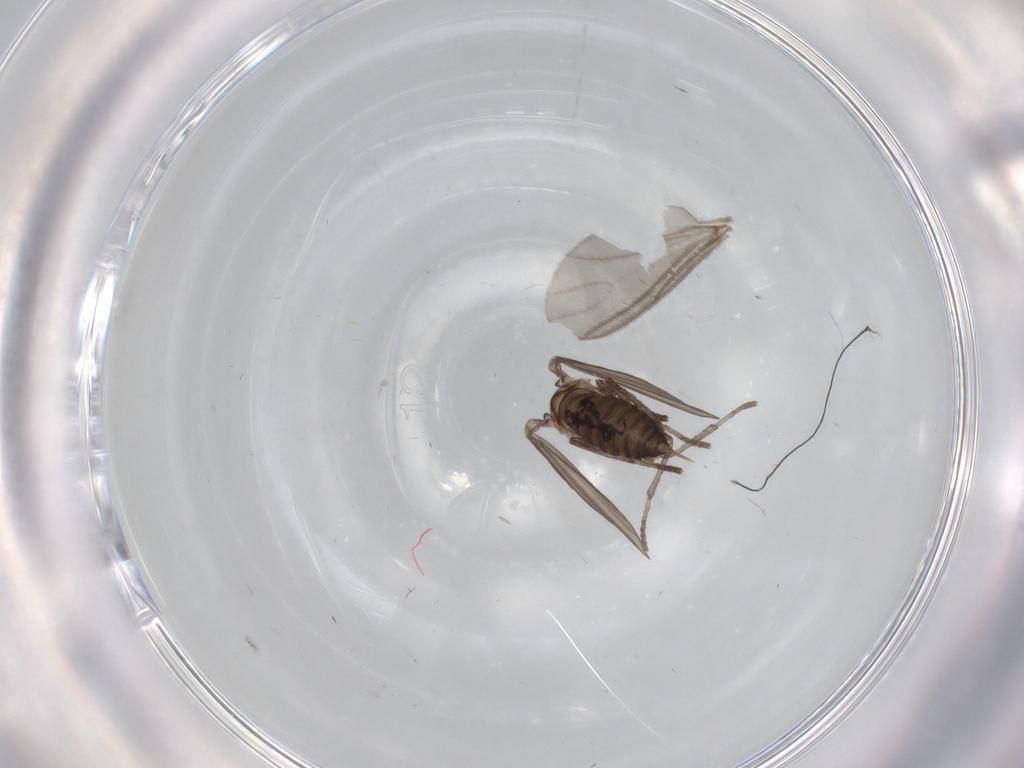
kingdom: Animalia
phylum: Arthropoda
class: Insecta
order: Diptera
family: Psychodidae
